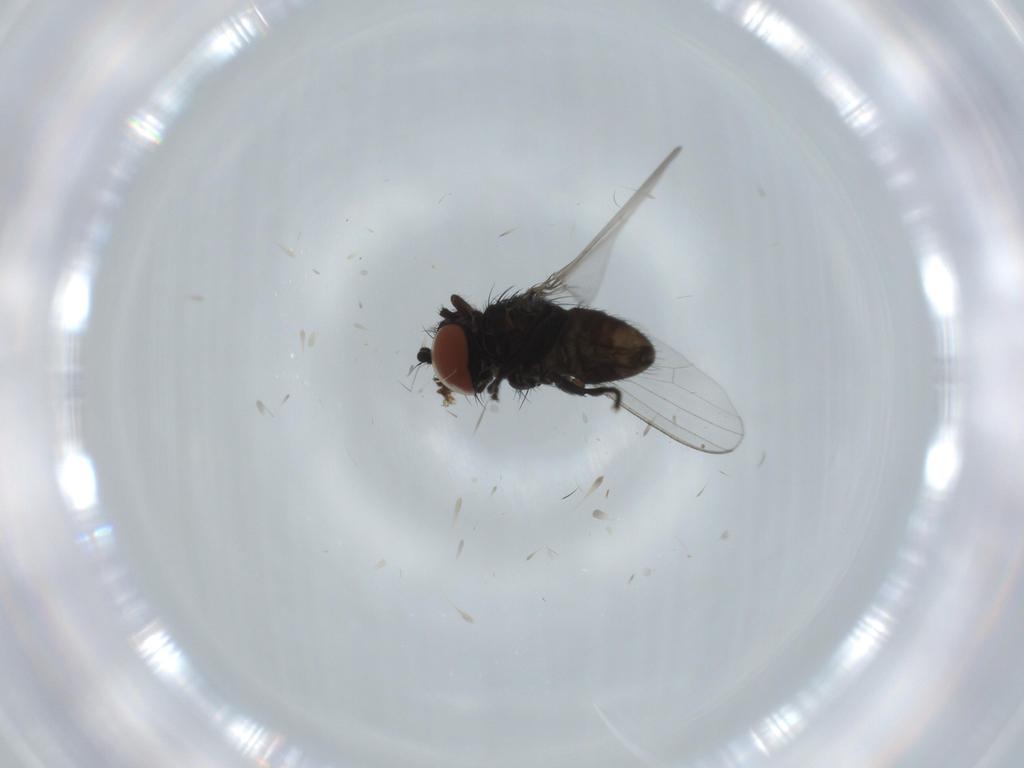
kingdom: Animalia
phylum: Arthropoda
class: Insecta
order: Diptera
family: Milichiidae
